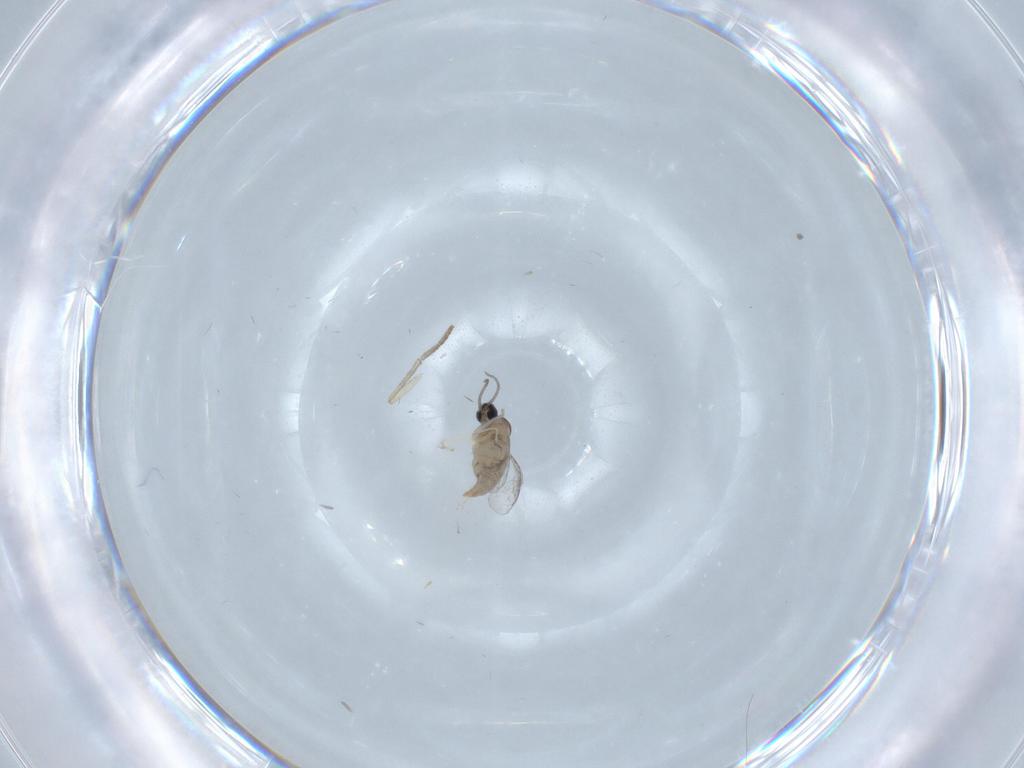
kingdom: Animalia
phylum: Arthropoda
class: Insecta
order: Diptera
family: Cecidomyiidae
